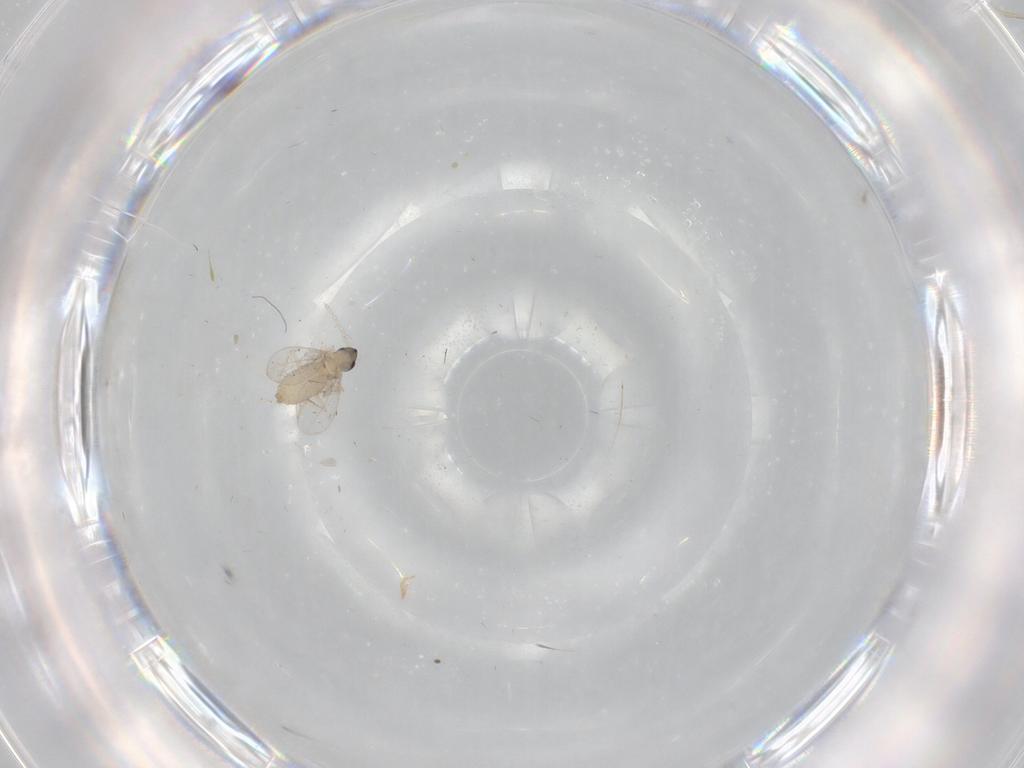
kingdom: Animalia
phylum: Arthropoda
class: Insecta
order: Diptera
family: Cecidomyiidae
